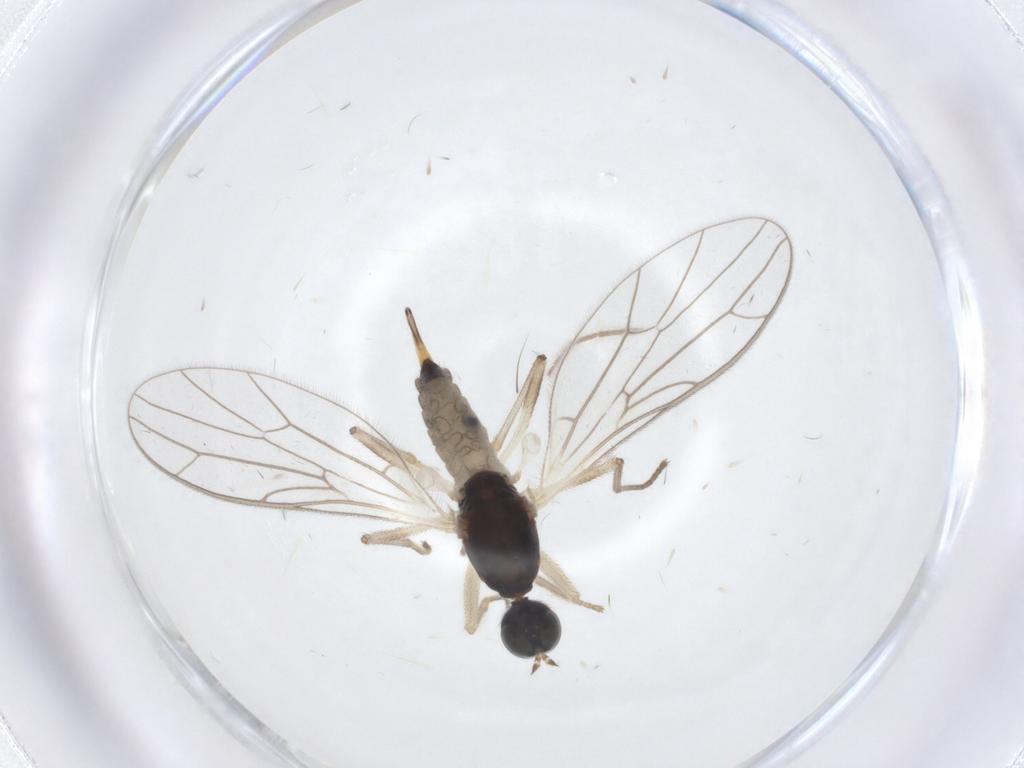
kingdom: Animalia
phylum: Arthropoda
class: Insecta
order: Diptera
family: Empididae
